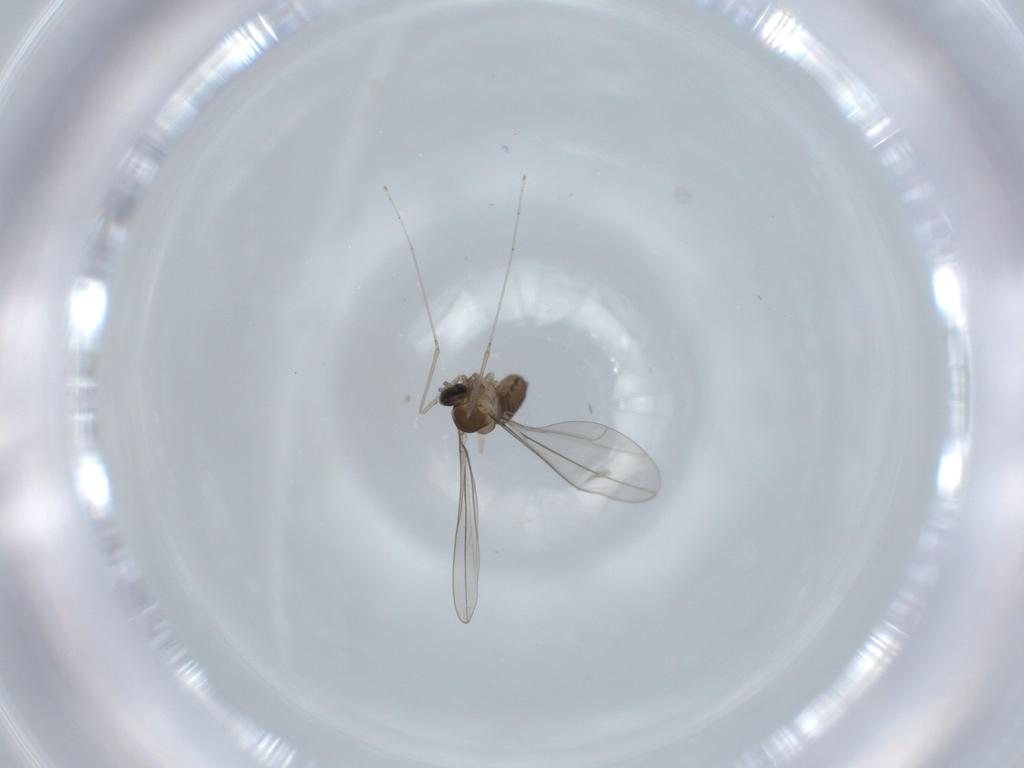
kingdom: Animalia
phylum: Arthropoda
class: Insecta
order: Diptera
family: Cecidomyiidae
